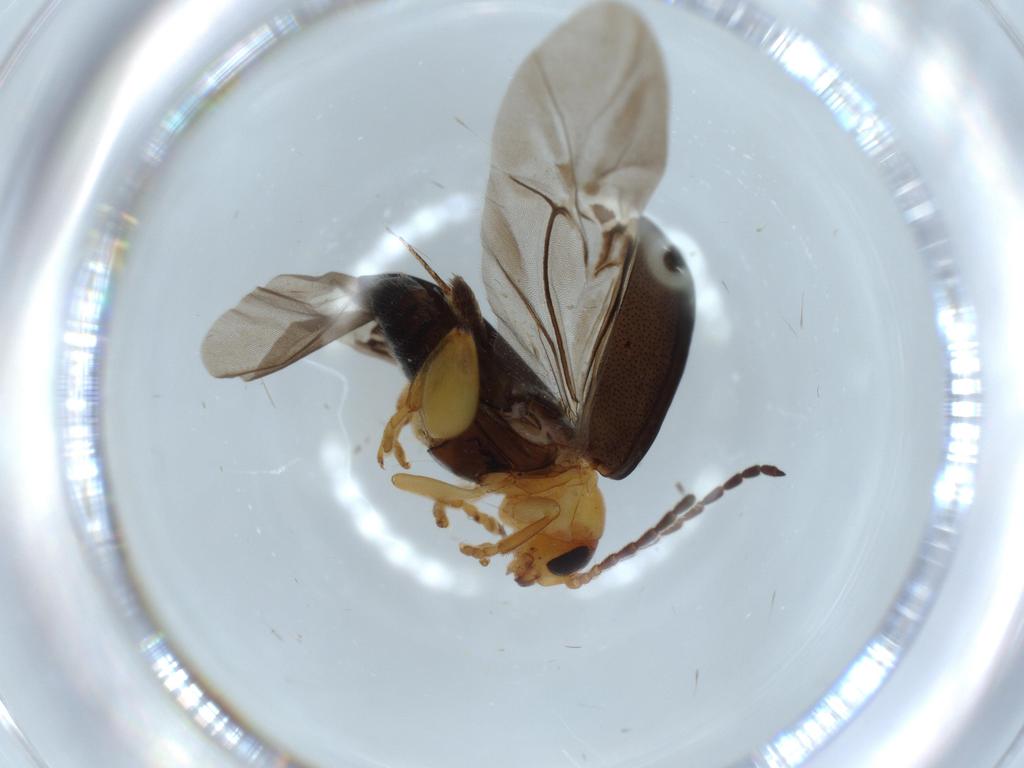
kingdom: Animalia
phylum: Arthropoda
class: Insecta
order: Coleoptera
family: Chrysomelidae
